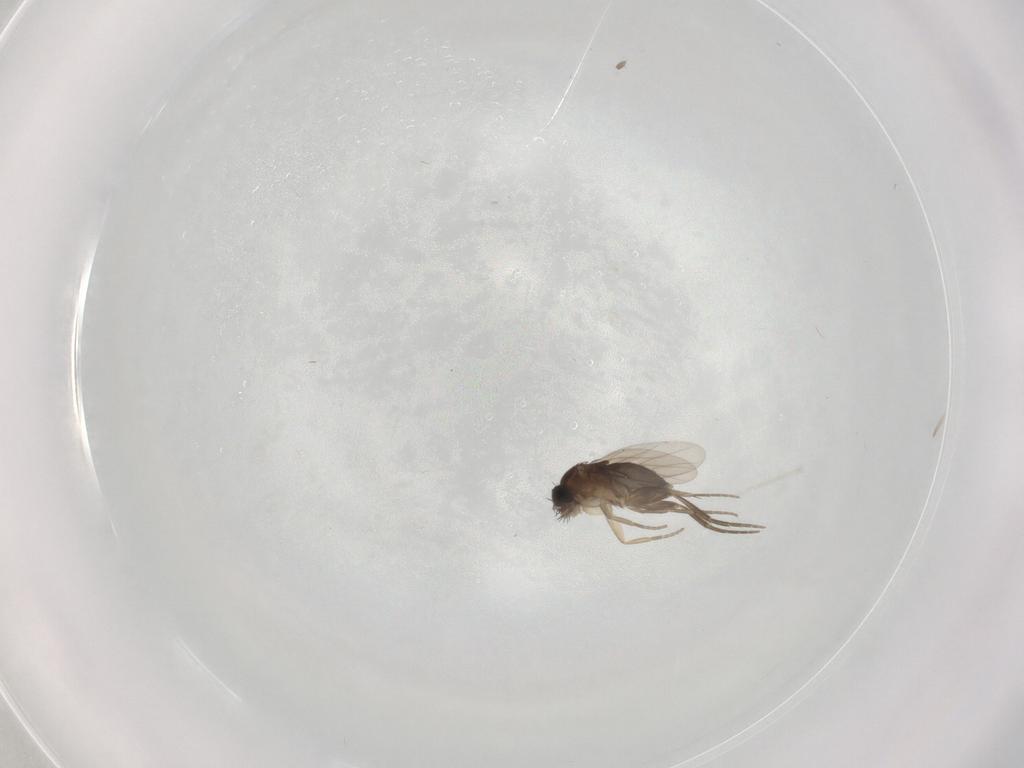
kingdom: Animalia
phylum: Arthropoda
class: Insecta
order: Diptera
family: Phoridae
